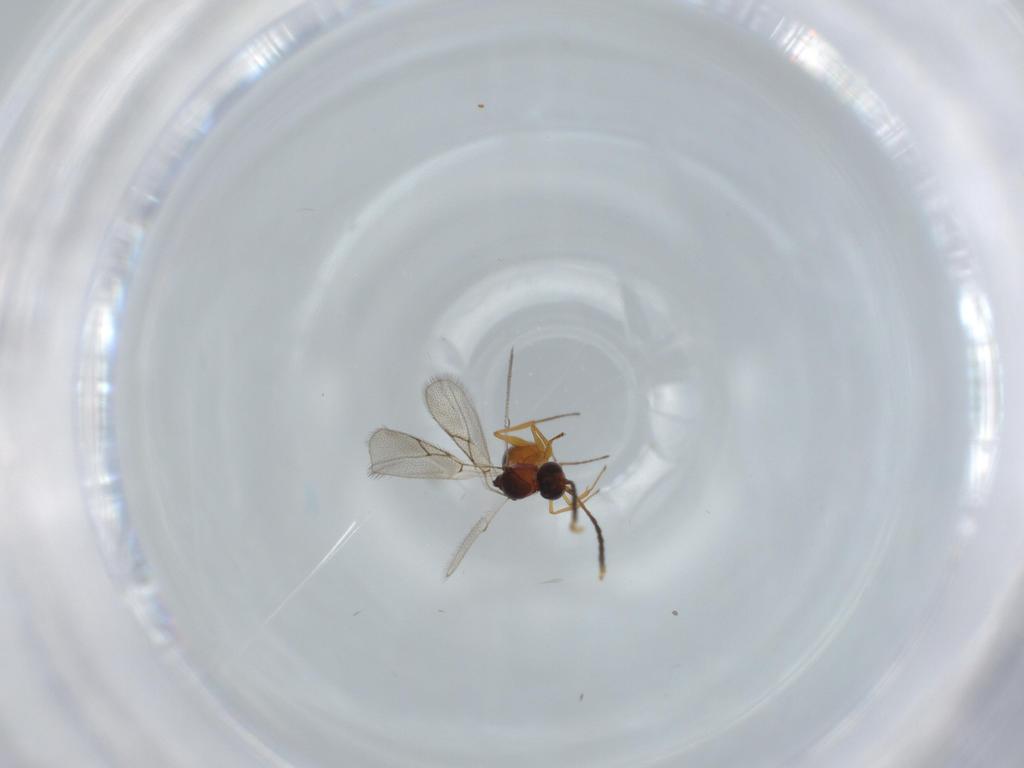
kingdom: Animalia
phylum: Arthropoda
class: Insecta
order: Hymenoptera
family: Figitidae
